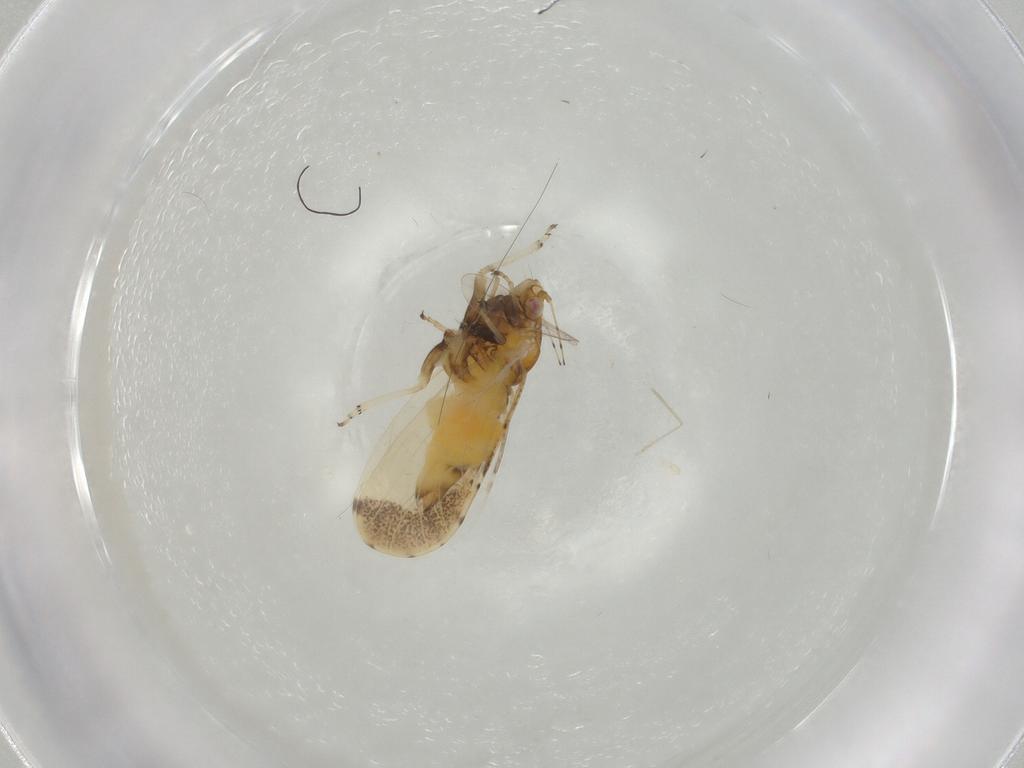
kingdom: Animalia
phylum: Arthropoda
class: Insecta
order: Hemiptera
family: Psyllidae
